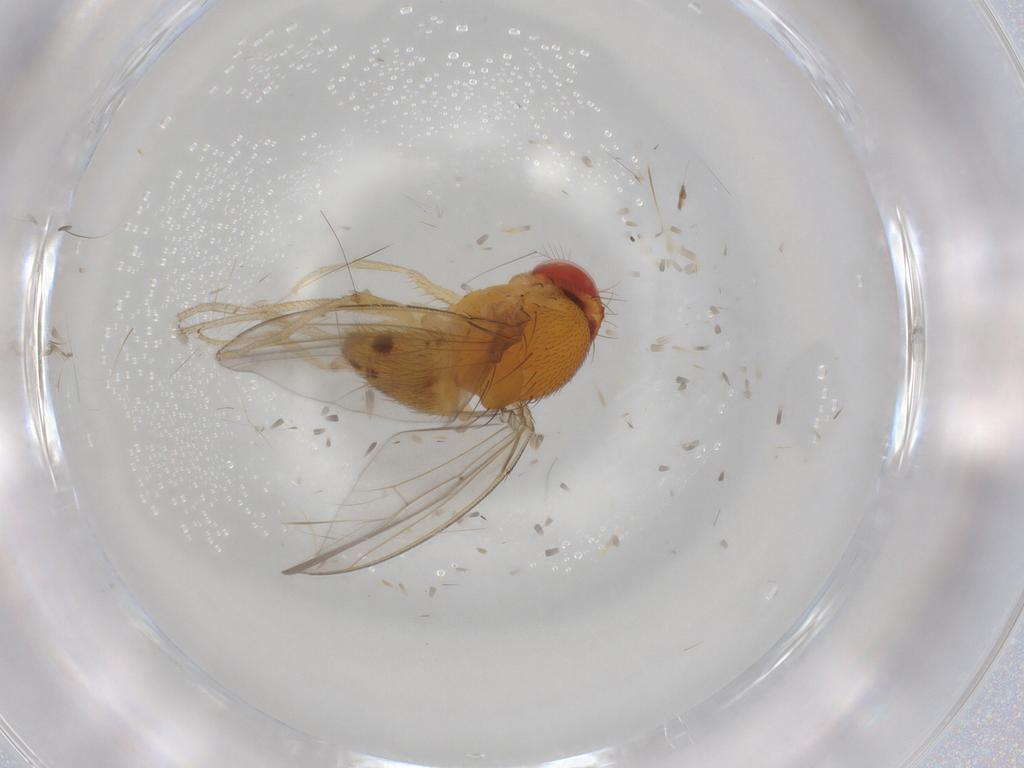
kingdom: Animalia
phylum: Arthropoda
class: Insecta
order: Diptera
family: Drosophilidae
